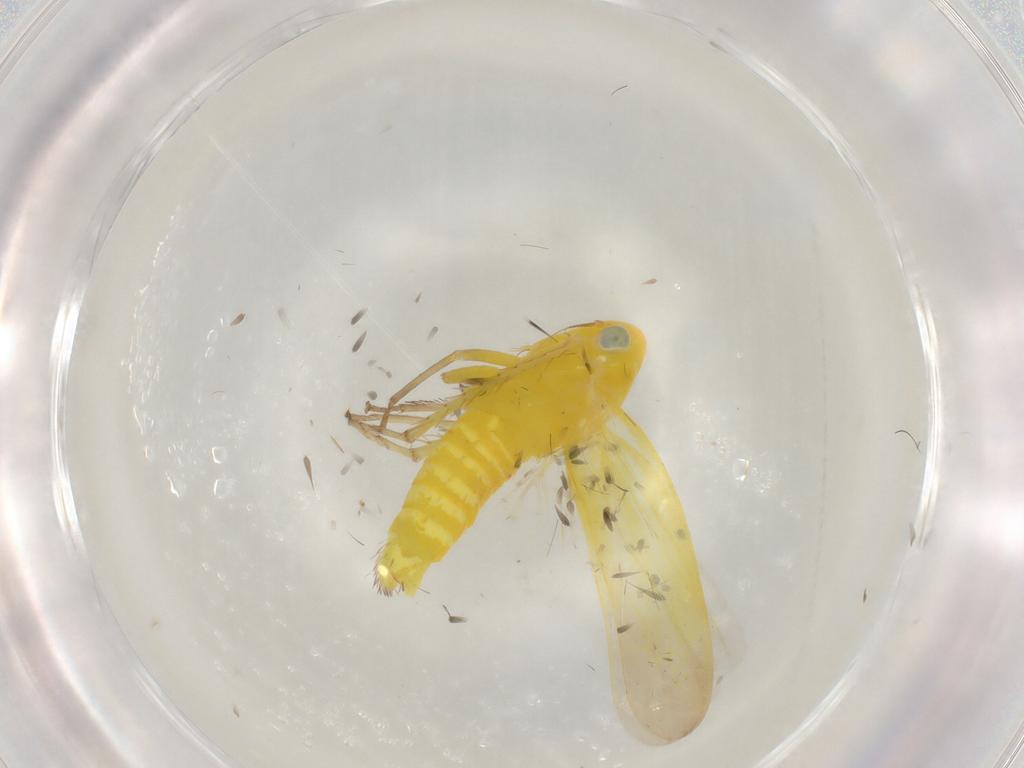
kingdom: Animalia
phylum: Arthropoda
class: Insecta
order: Hemiptera
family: Cicadellidae
